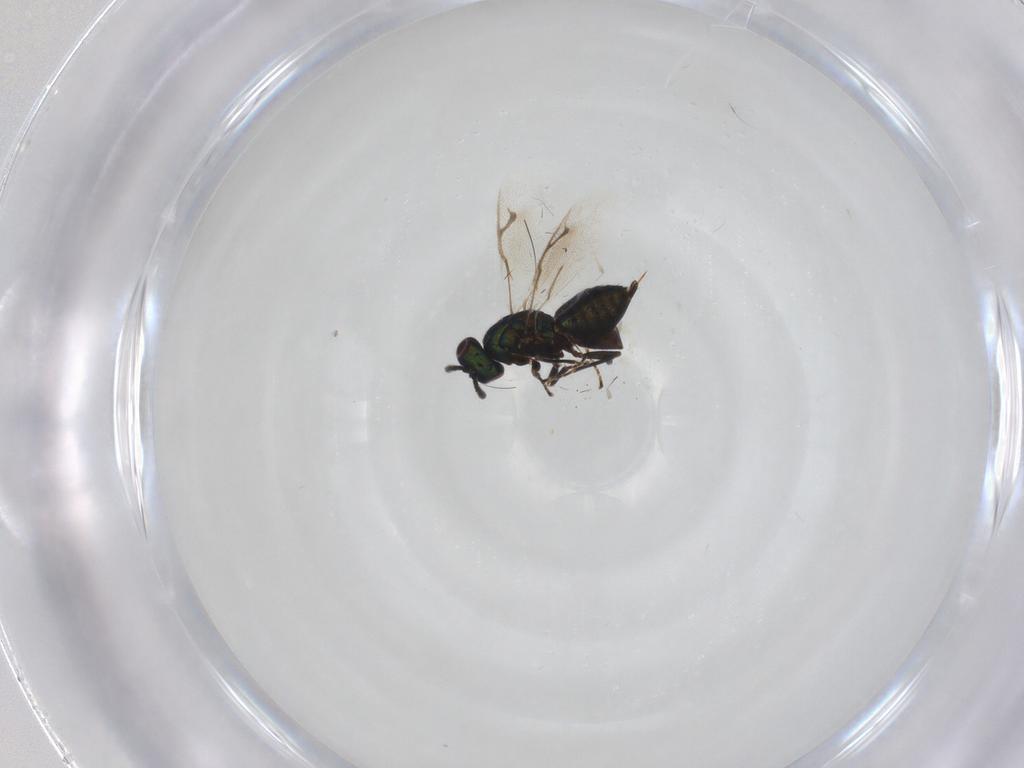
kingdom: Animalia
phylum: Arthropoda
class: Insecta
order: Hymenoptera
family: Pteromalidae
